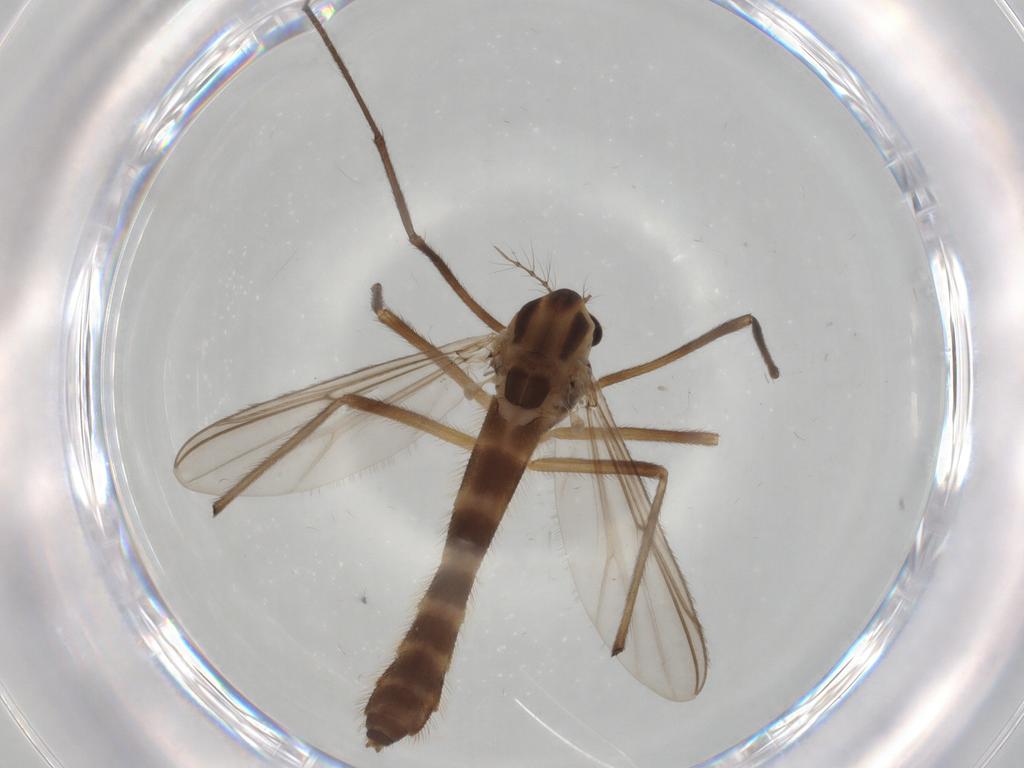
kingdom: Animalia
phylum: Arthropoda
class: Insecta
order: Diptera
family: Phoridae
